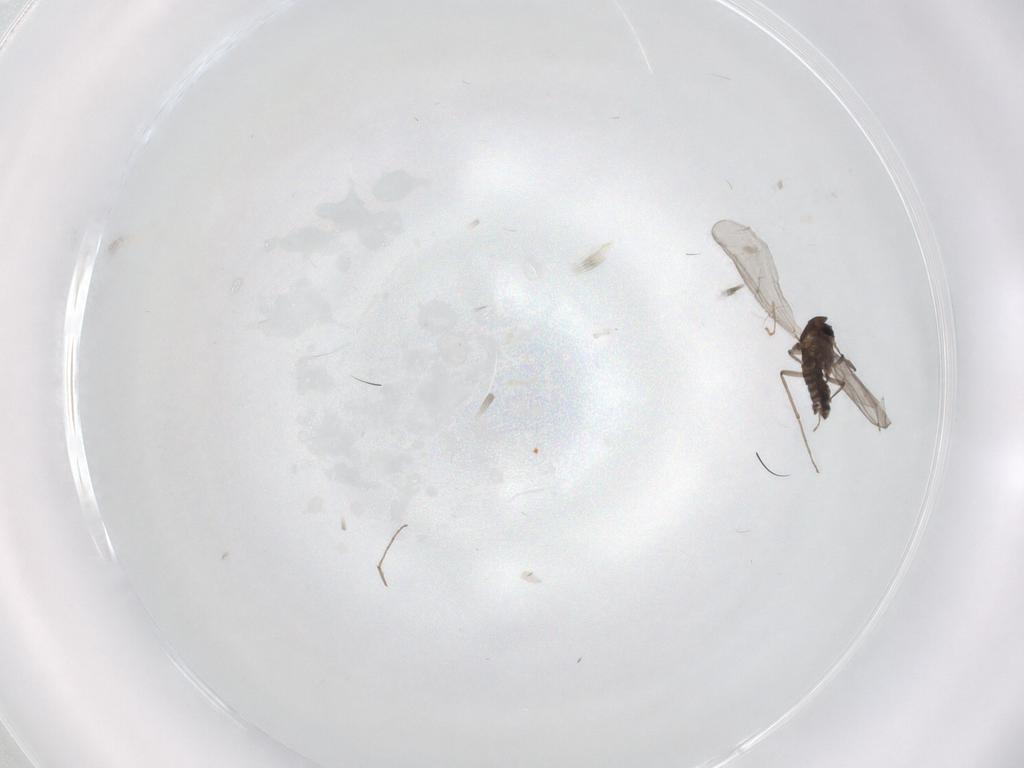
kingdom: Animalia
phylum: Arthropoda
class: Insecta
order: Diptera
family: Chironomidae
